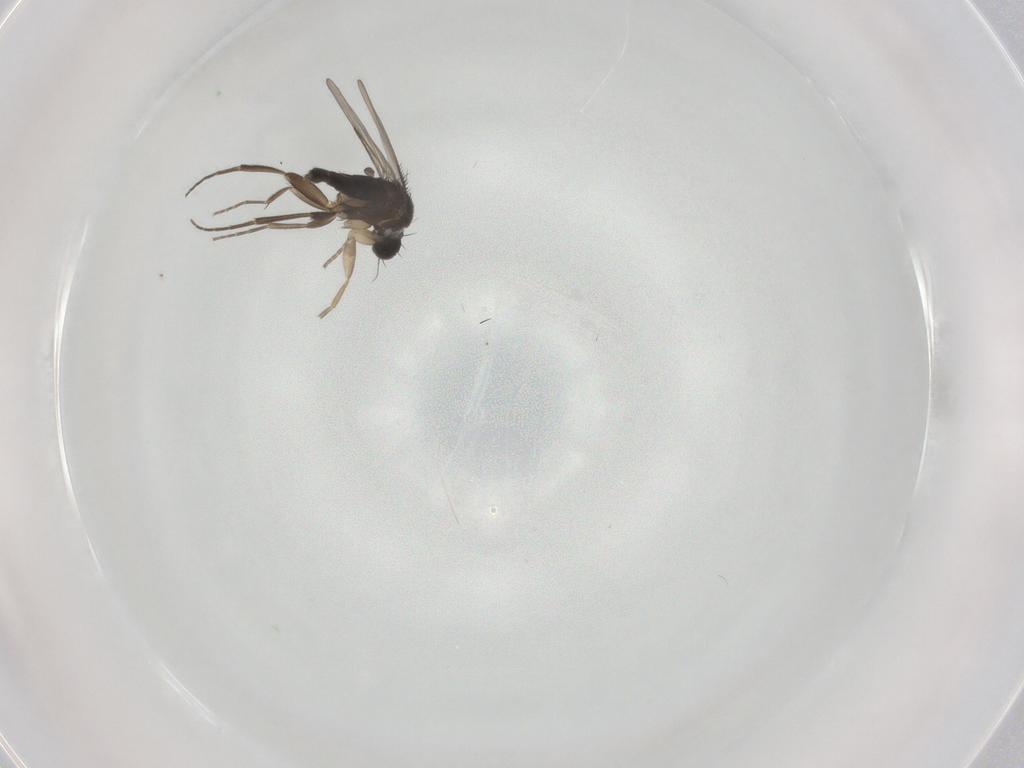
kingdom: Animalia
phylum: Arthropoda
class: Insecta
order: Diptera
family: Phoridae
